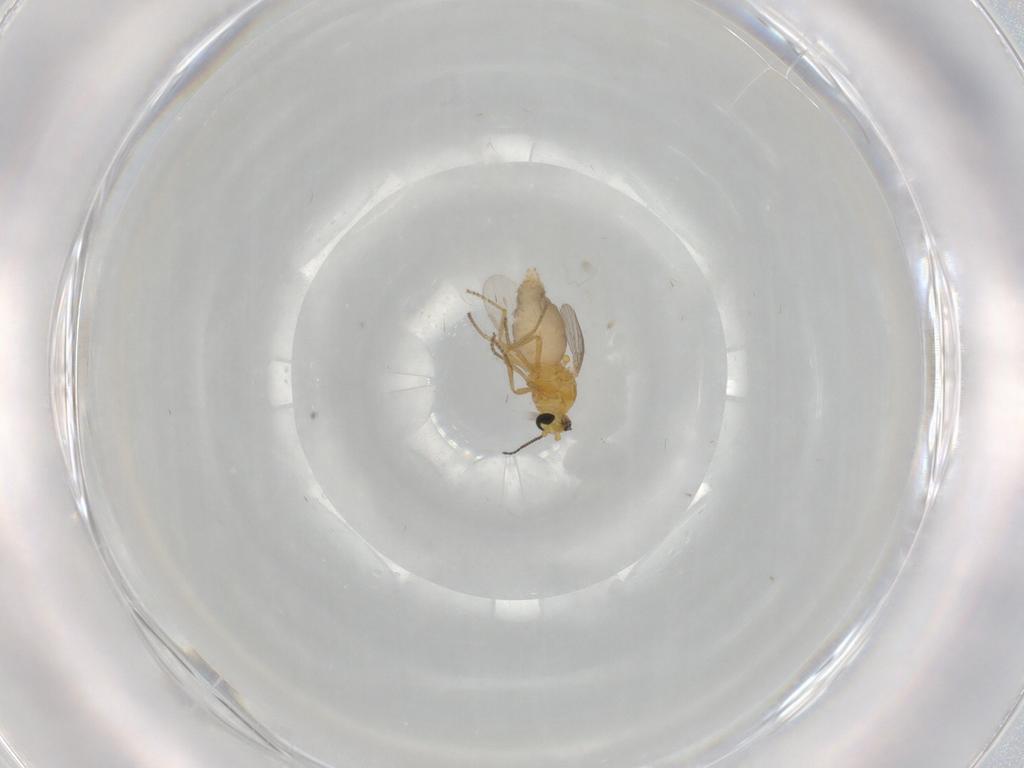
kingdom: Animalia
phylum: Arthropoda
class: Insecta
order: Diptera
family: Ceratopogonidae
